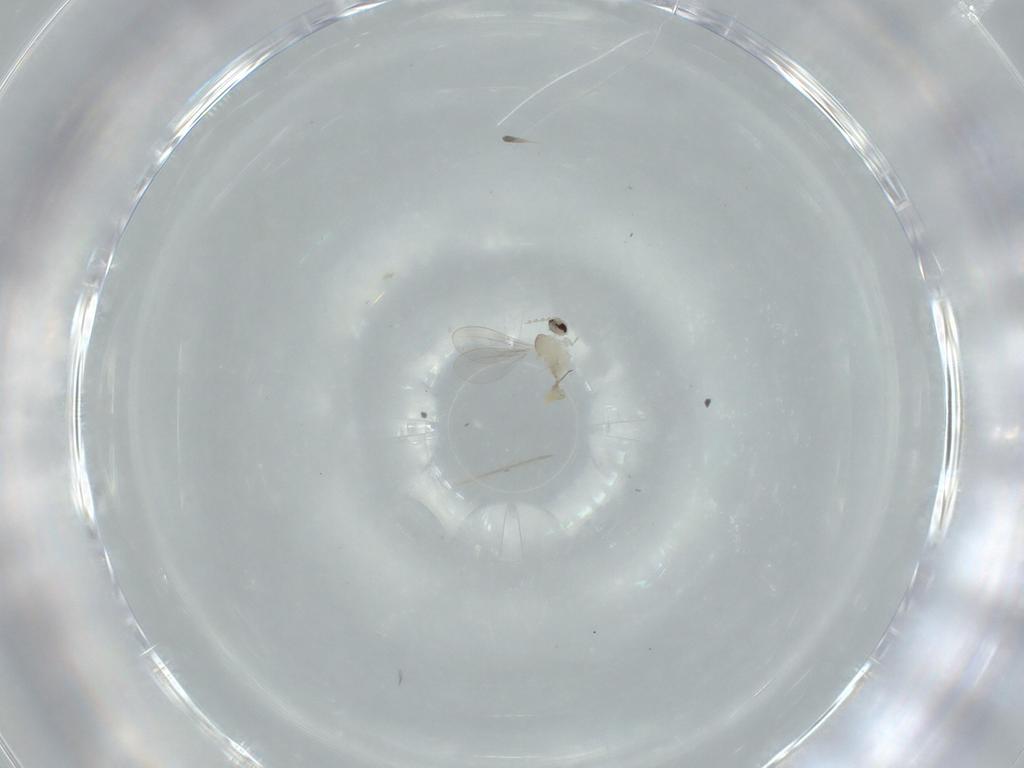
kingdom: Animalia
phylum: Arthropoda
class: Insecta
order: Diptera
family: Cecidomyiidae
